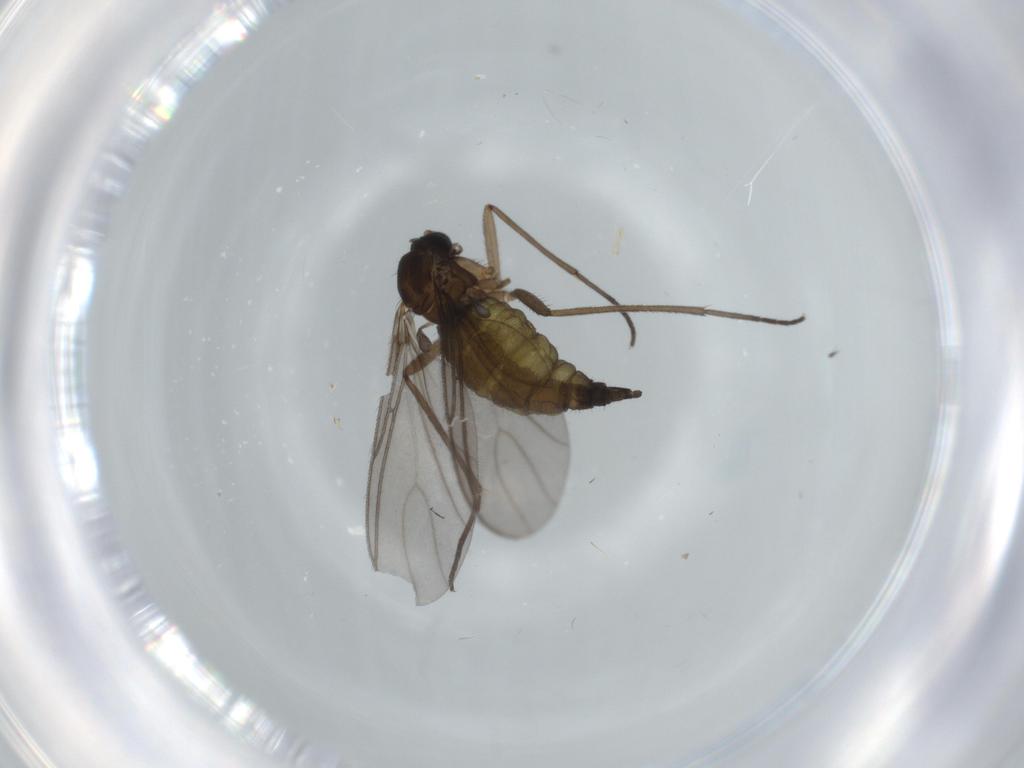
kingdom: Animalia
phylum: Arthropoda
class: Insecta
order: Diptera
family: Sciaridae
